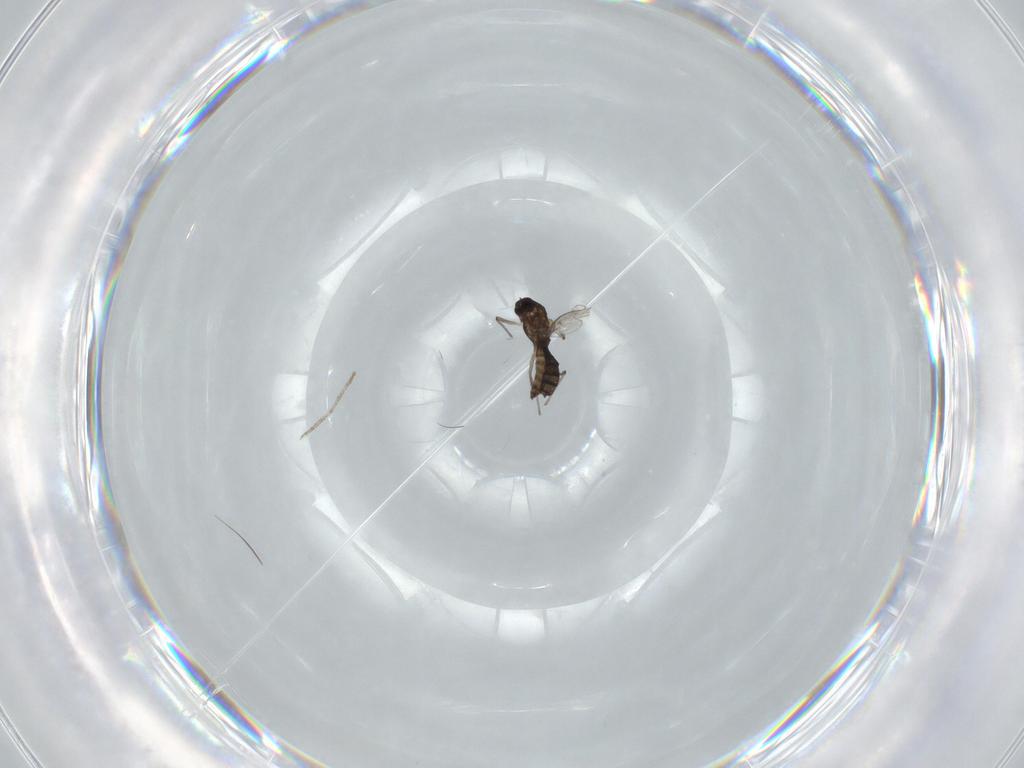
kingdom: Animalia
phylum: Arthropoda
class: Insecta
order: Diptera
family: Chironomidae
